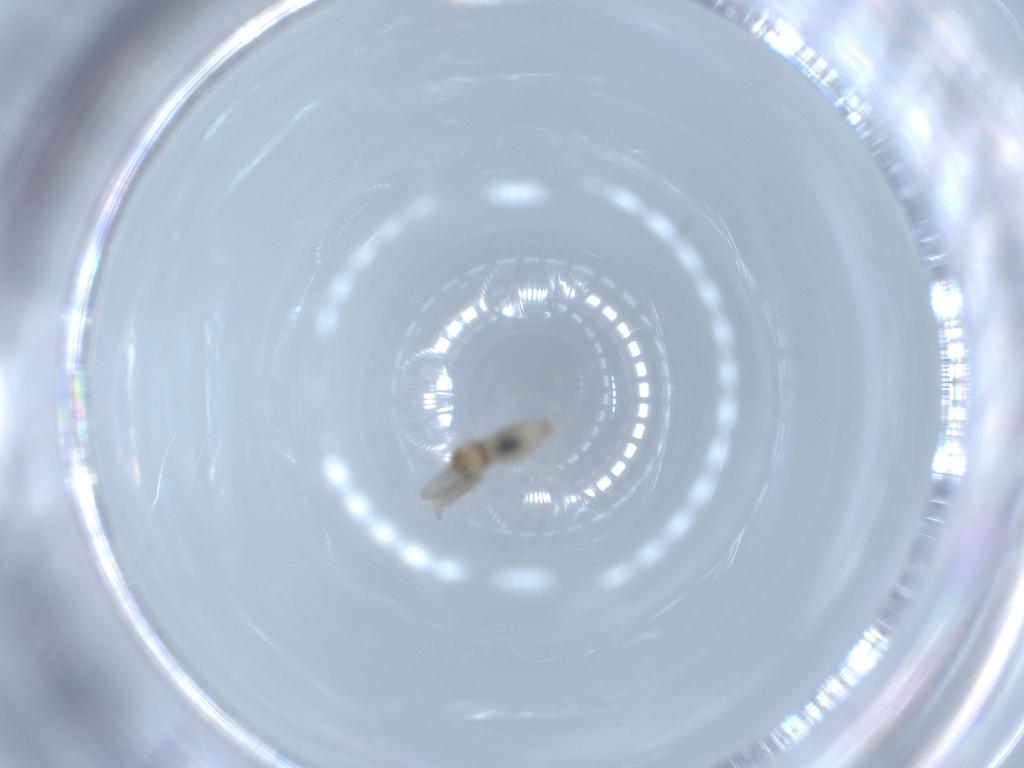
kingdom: Animalia
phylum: Arthropoda
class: Insecta
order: Diptera
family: Cecidomyiidae
